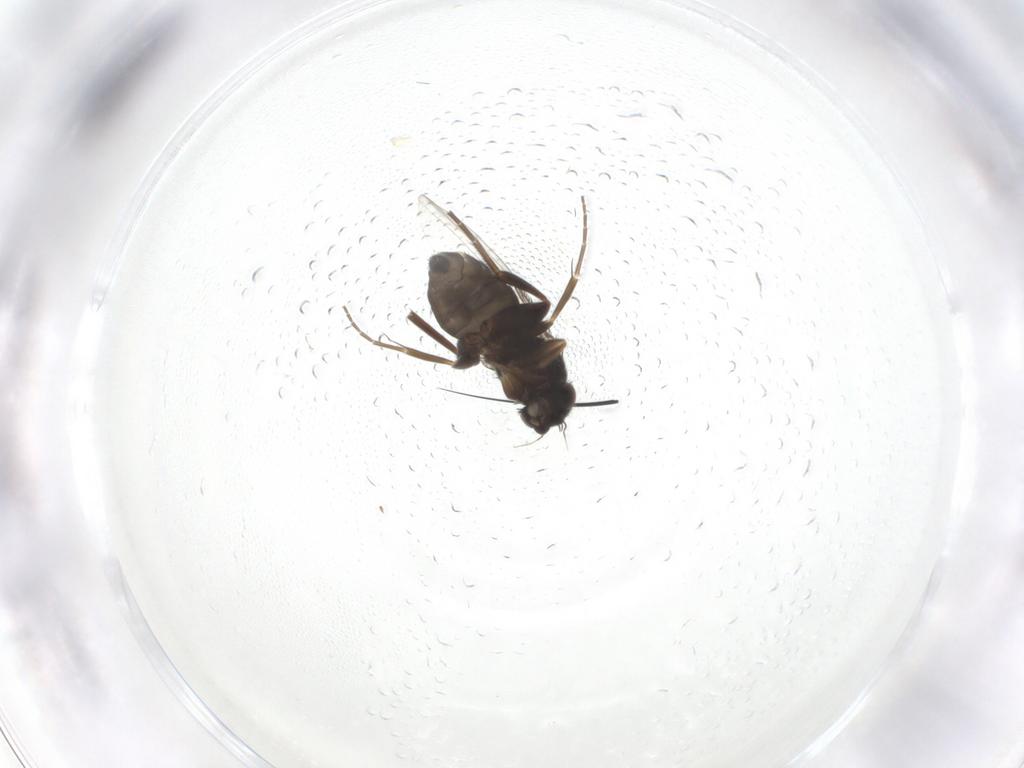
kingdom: Animalia
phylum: Arthropoda
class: Insecta
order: Diptera
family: Phoridae
